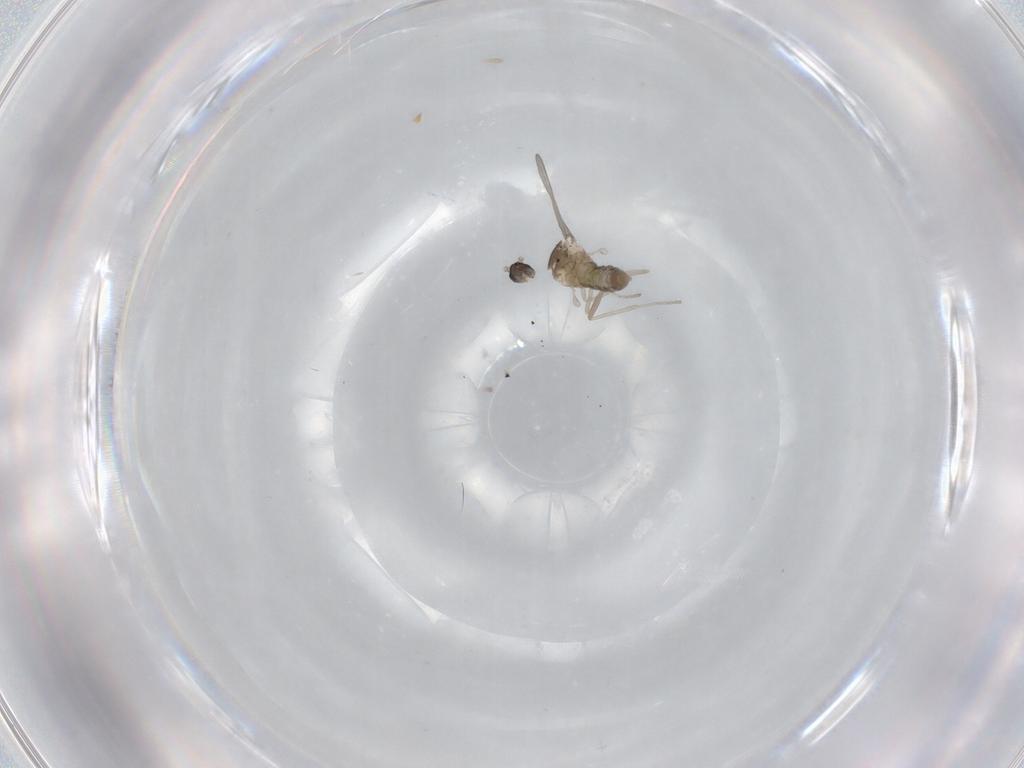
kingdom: Animalia
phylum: Arthropoda
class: Insecta
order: Diptera
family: Cecidomyiidae
